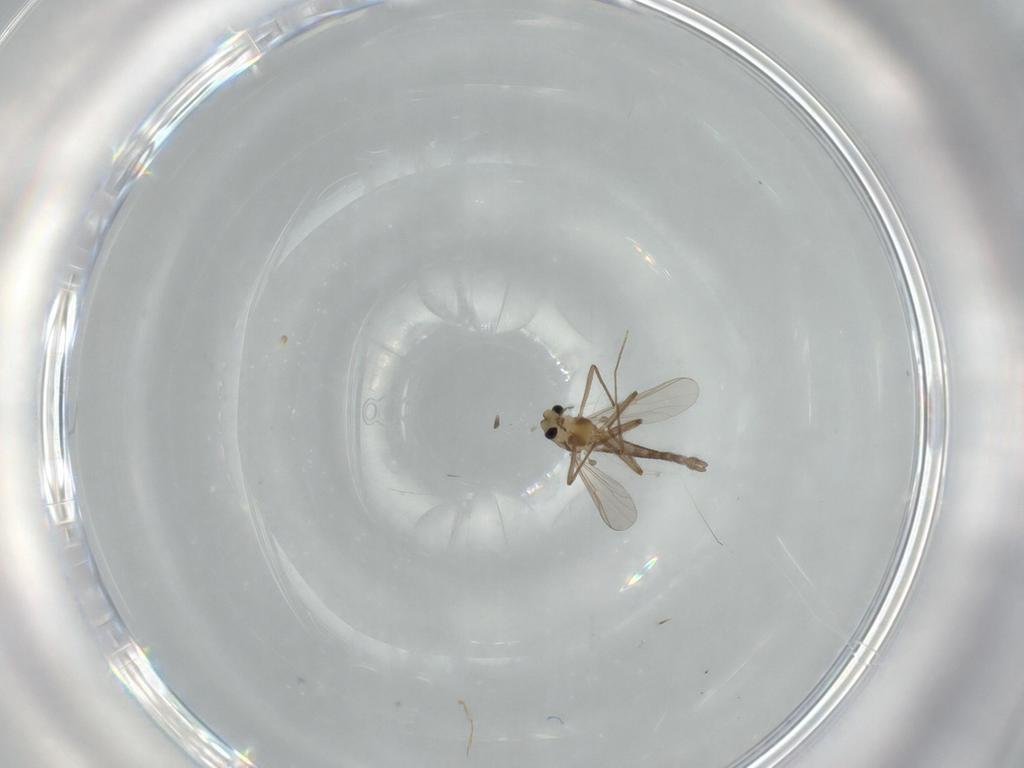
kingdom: Animalia
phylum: Arthropoda
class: Insecta
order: Diptera
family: Chironomidae
